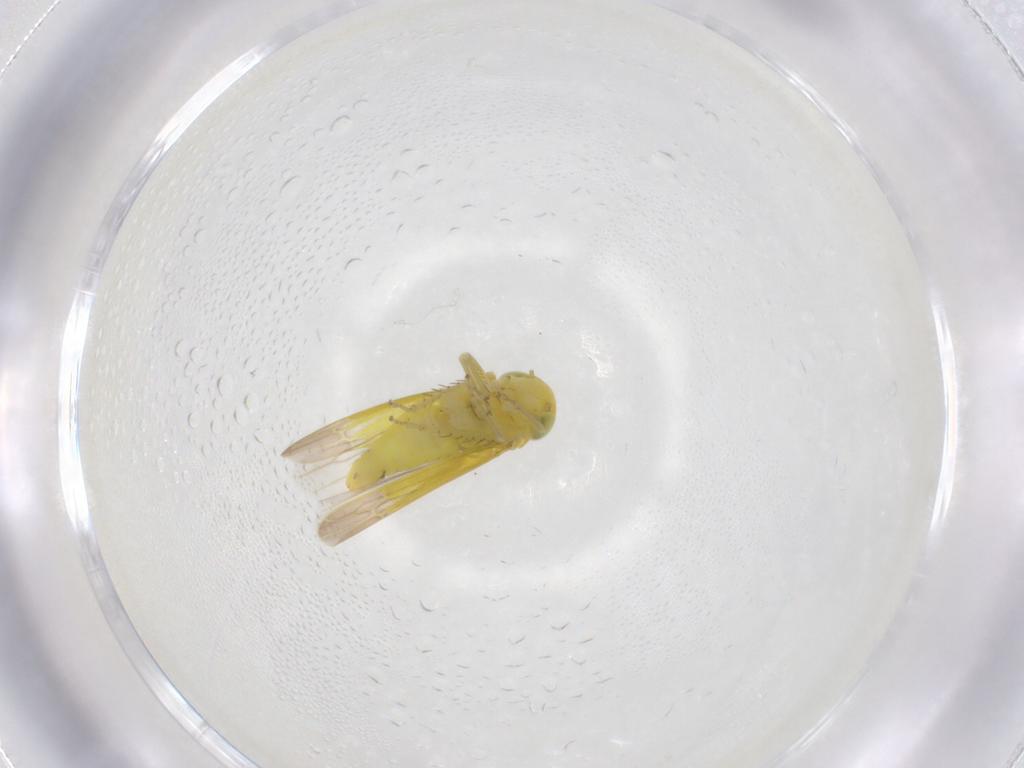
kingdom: Animalia
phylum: Arthropoda
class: Insecta
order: Hemiptera
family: Cicadellidae
